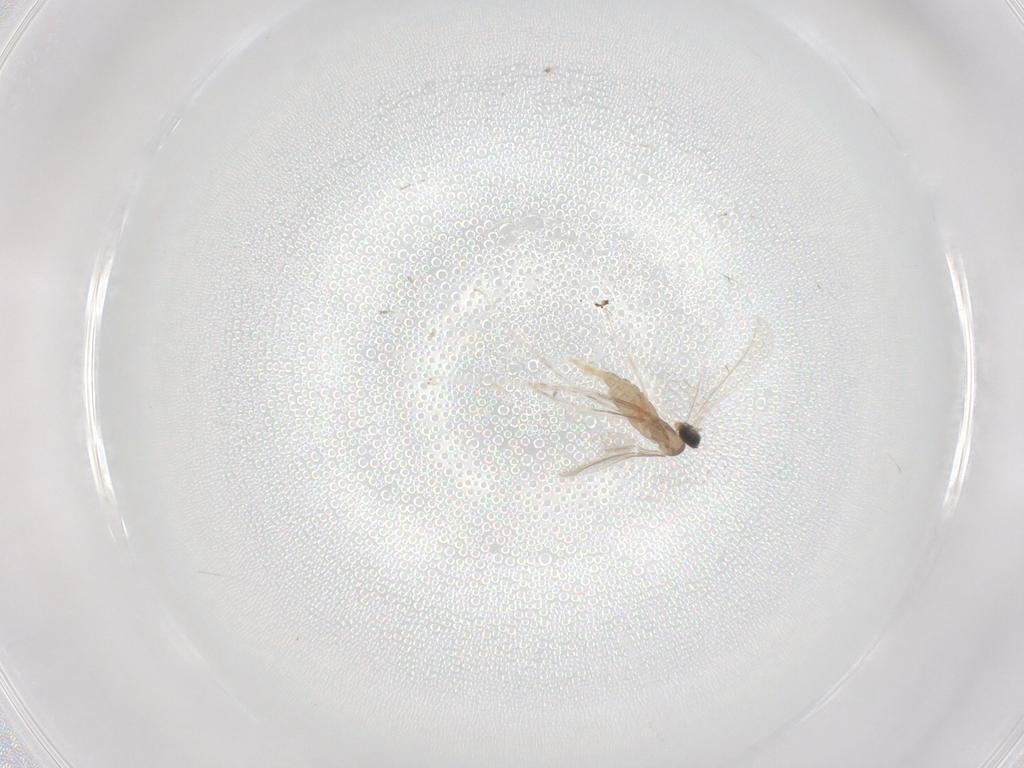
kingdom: Animalia
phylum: Arthropoda
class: Insecta
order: Diptera
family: Cecidomyiidae
